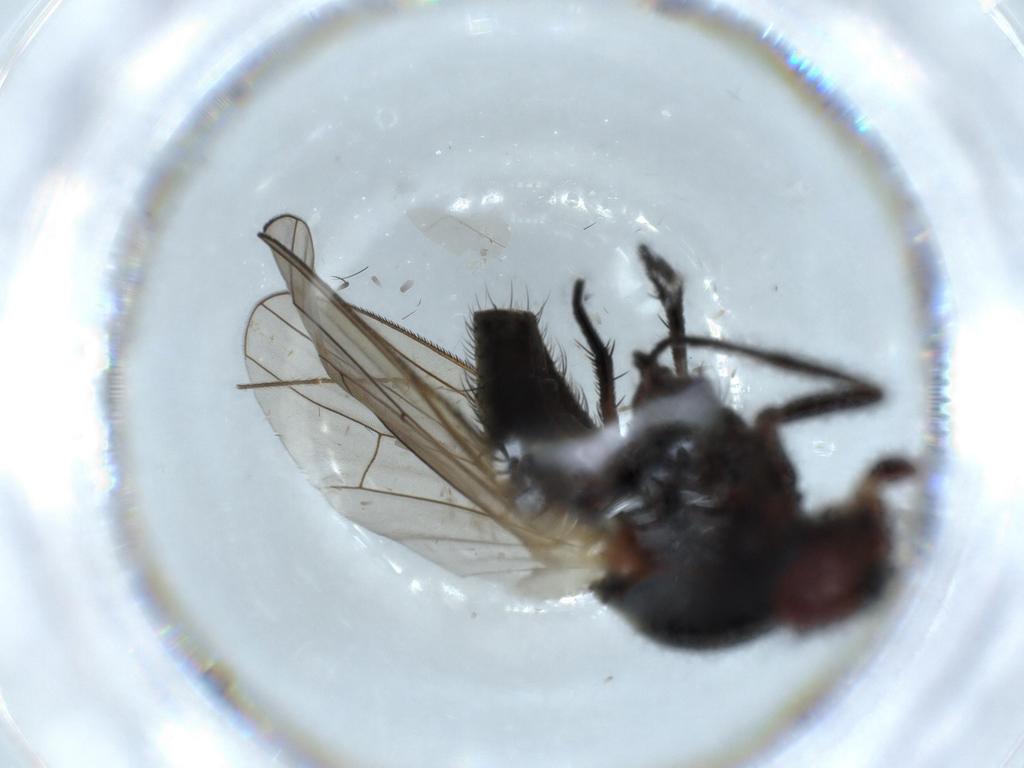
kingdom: Animalia
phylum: Arthropoda
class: Insecta
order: Diptera
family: Anthomyiidae
